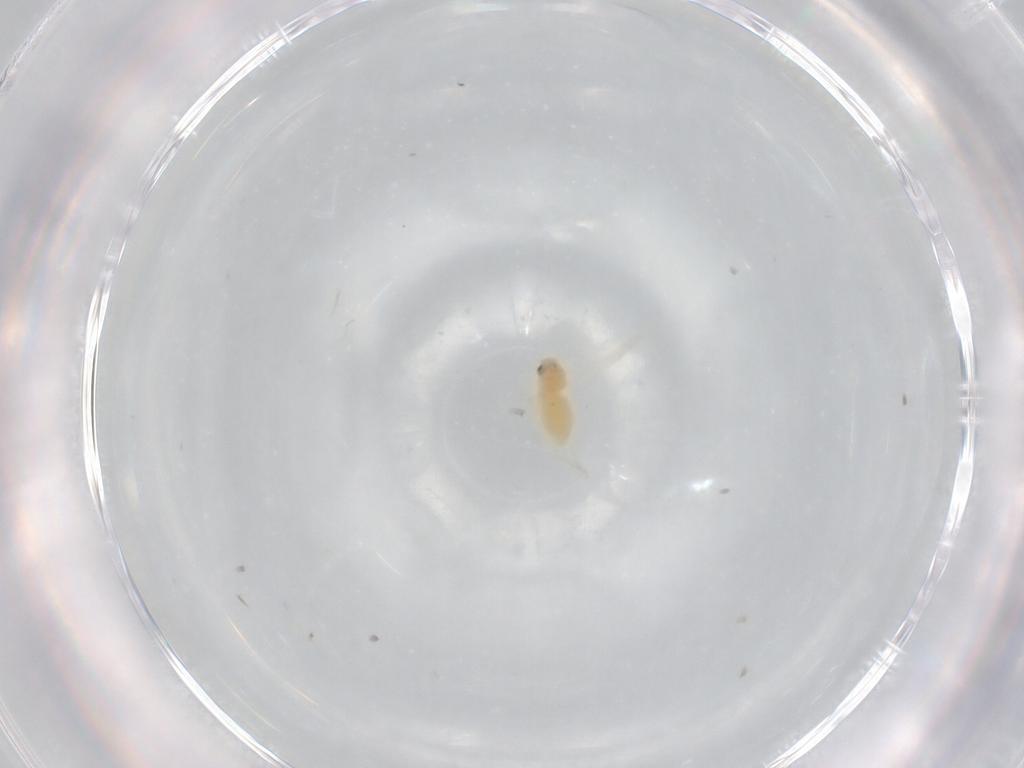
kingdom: Animalia
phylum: Arthropoda
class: Insecta
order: Hemiptera
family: Aleyrodidae
